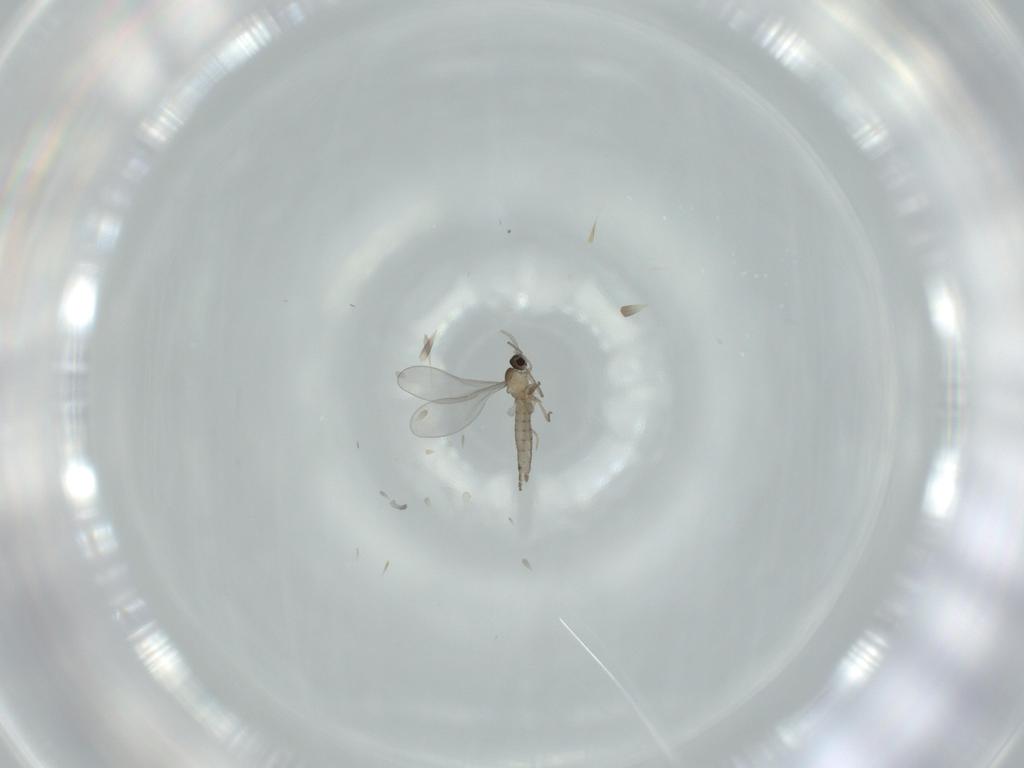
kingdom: Animalia
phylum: Arthropoda
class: Insecta
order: Diptera
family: Cecidomyiidae
